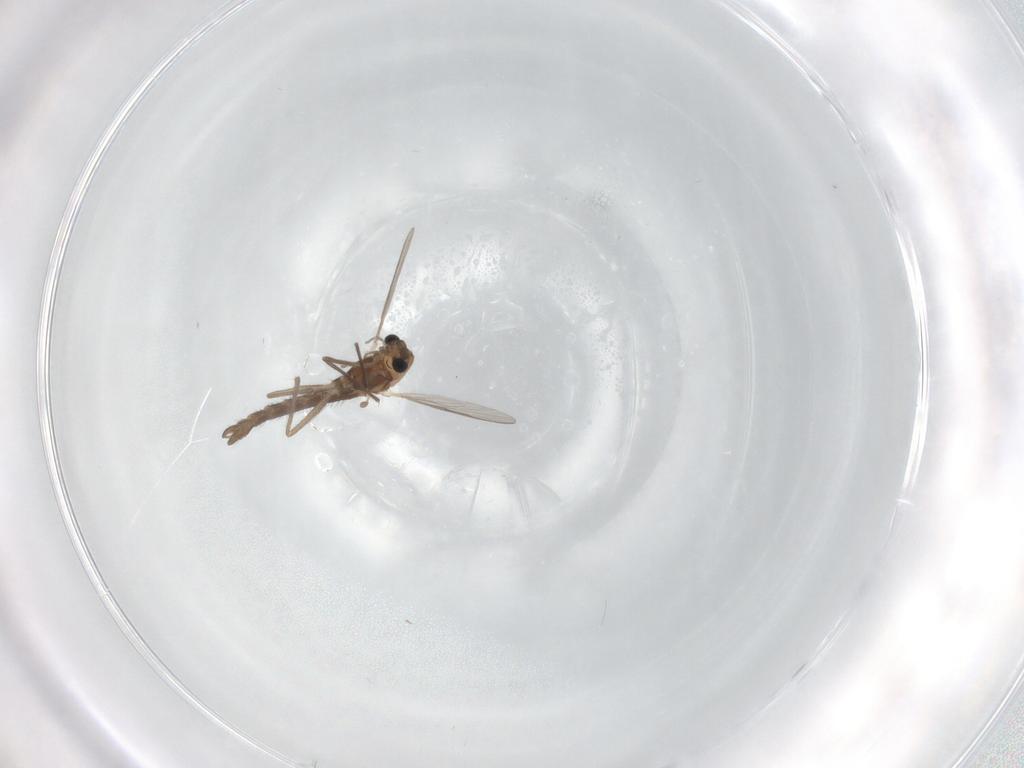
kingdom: Animalia
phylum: Arthropoda
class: Insecta
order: Diptera
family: Chironomidae
